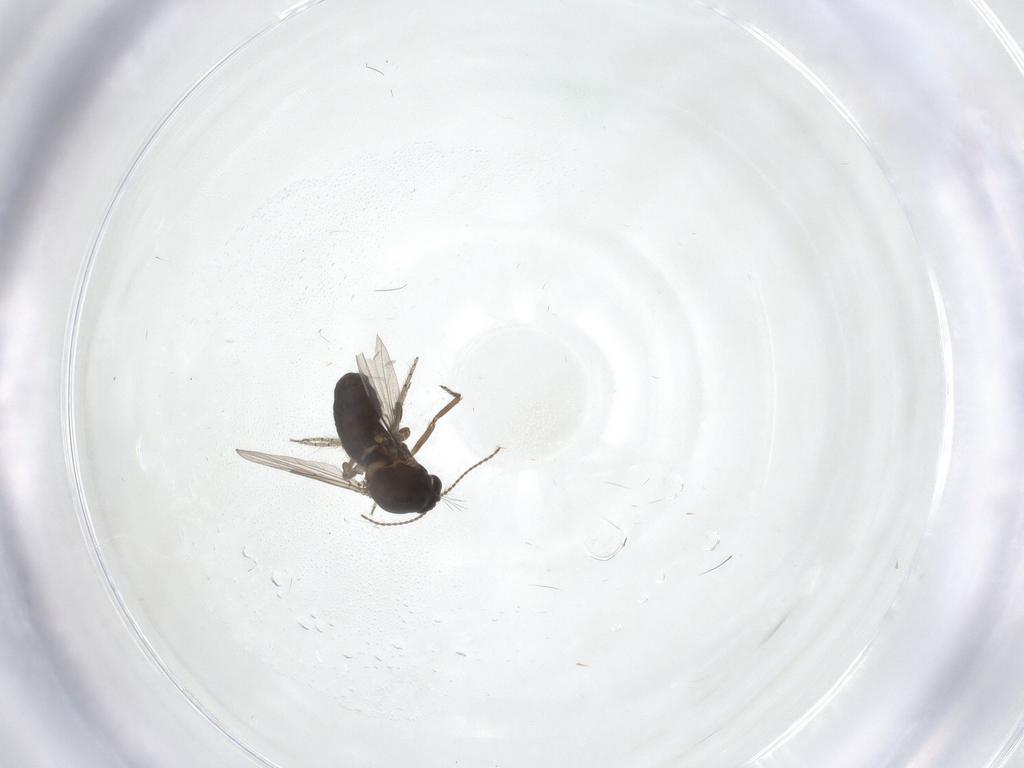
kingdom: Animalia
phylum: Arthropoda
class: Insecta
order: Diptera
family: Ceratopogonidae
